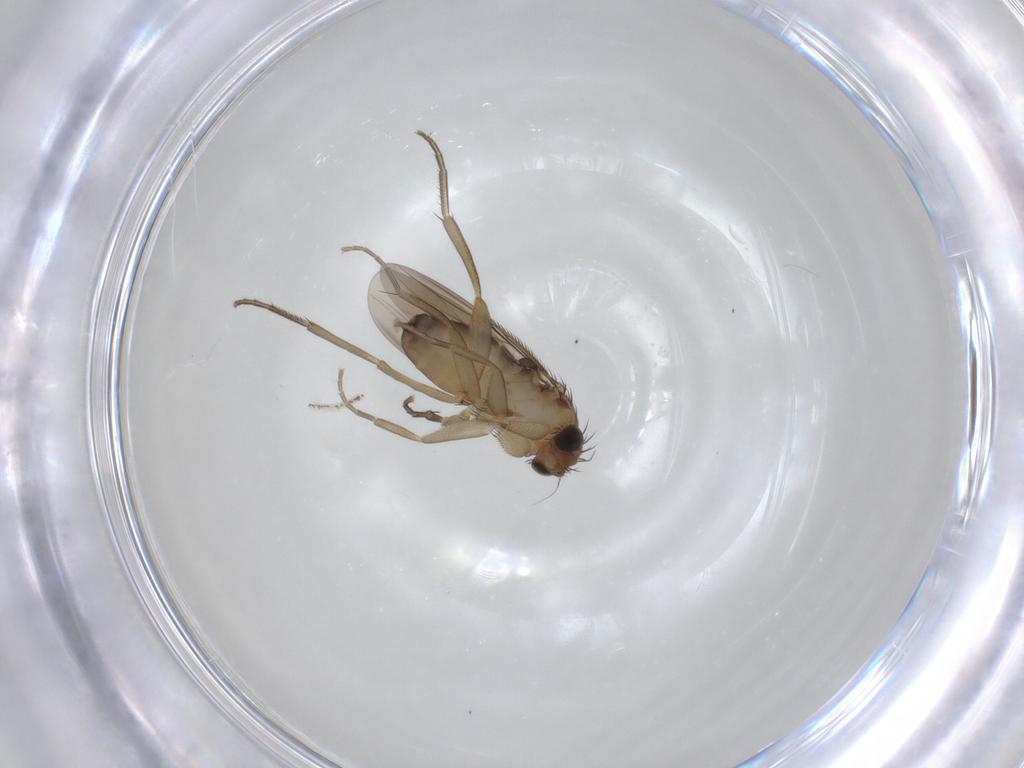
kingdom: Animalia
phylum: Arthropoda
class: Insecta
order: Diptera
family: Phoridae
